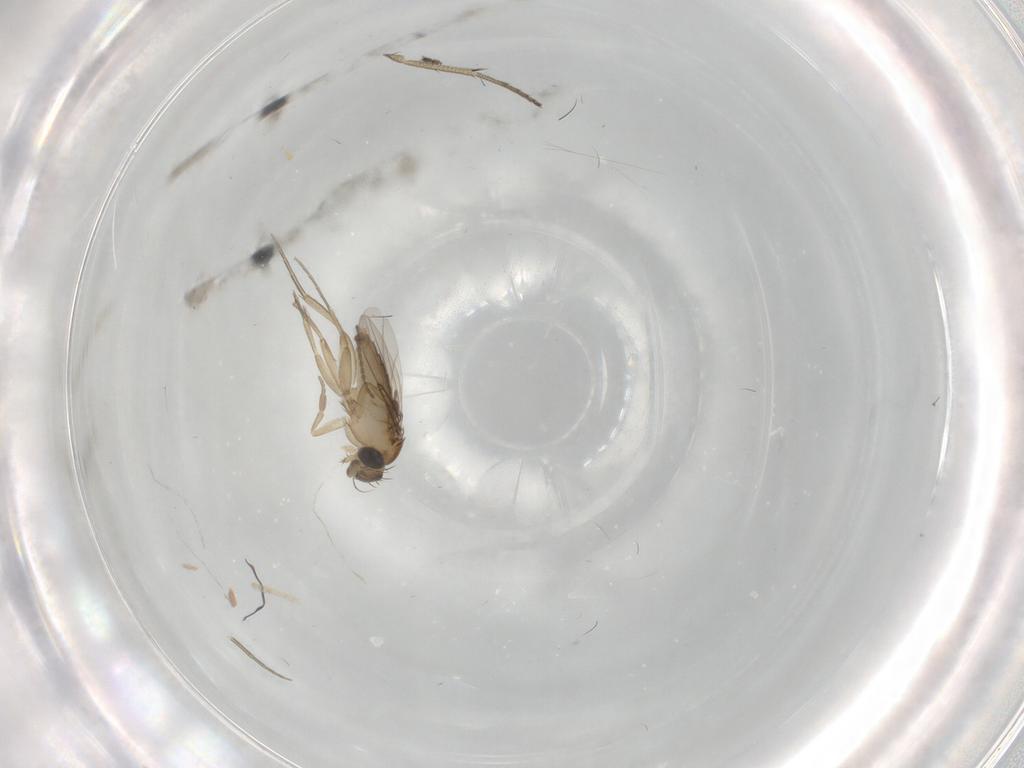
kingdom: Animalia
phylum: Arthropoda
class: Insecta
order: Diptera
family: Phoridae
